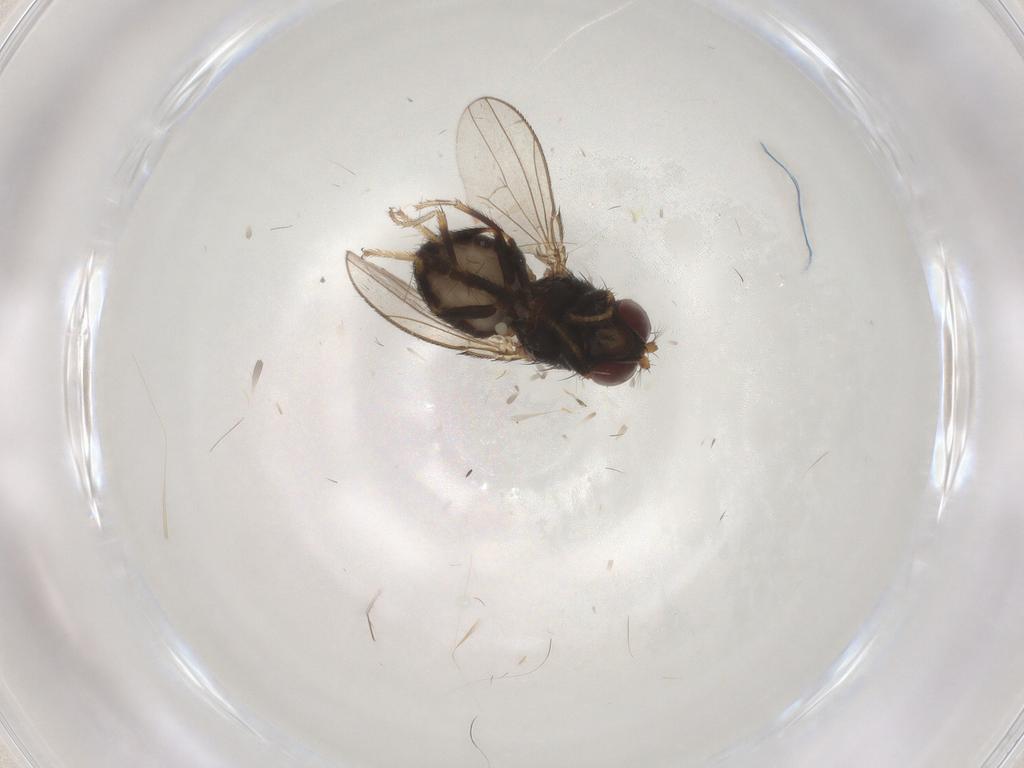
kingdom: Animalia
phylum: Arthropoda
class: Insecta
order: Diptera
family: Ephydridae
